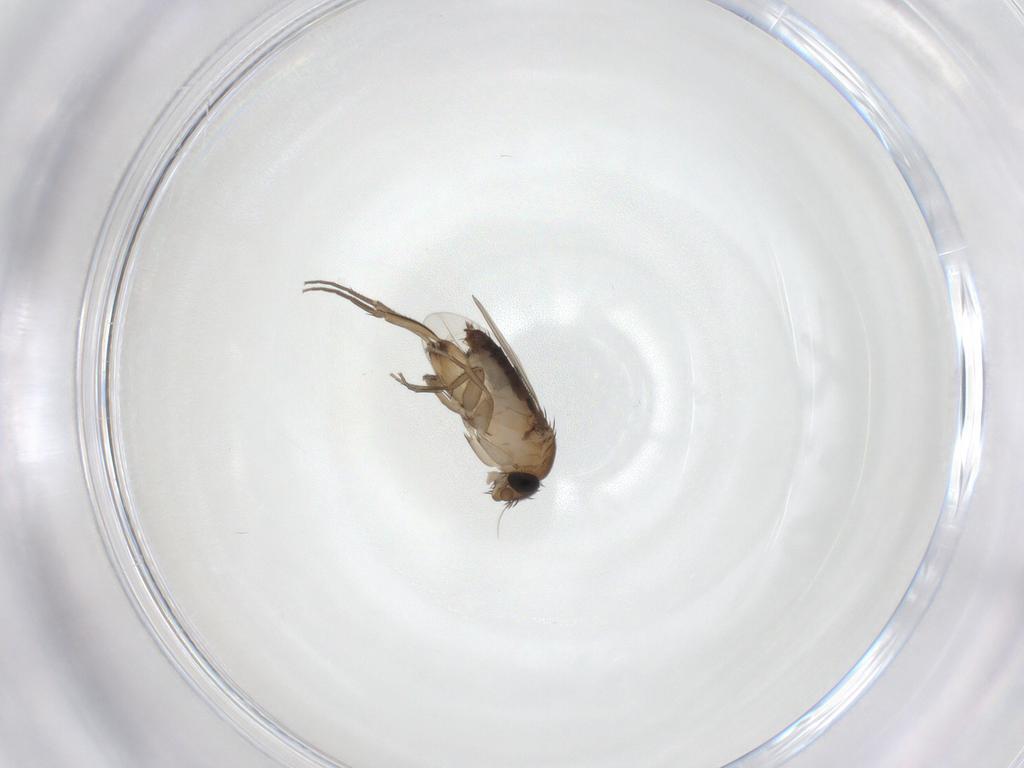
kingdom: Animalia
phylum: Arthropoda
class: Insecta
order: Diptera
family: Phoridae
